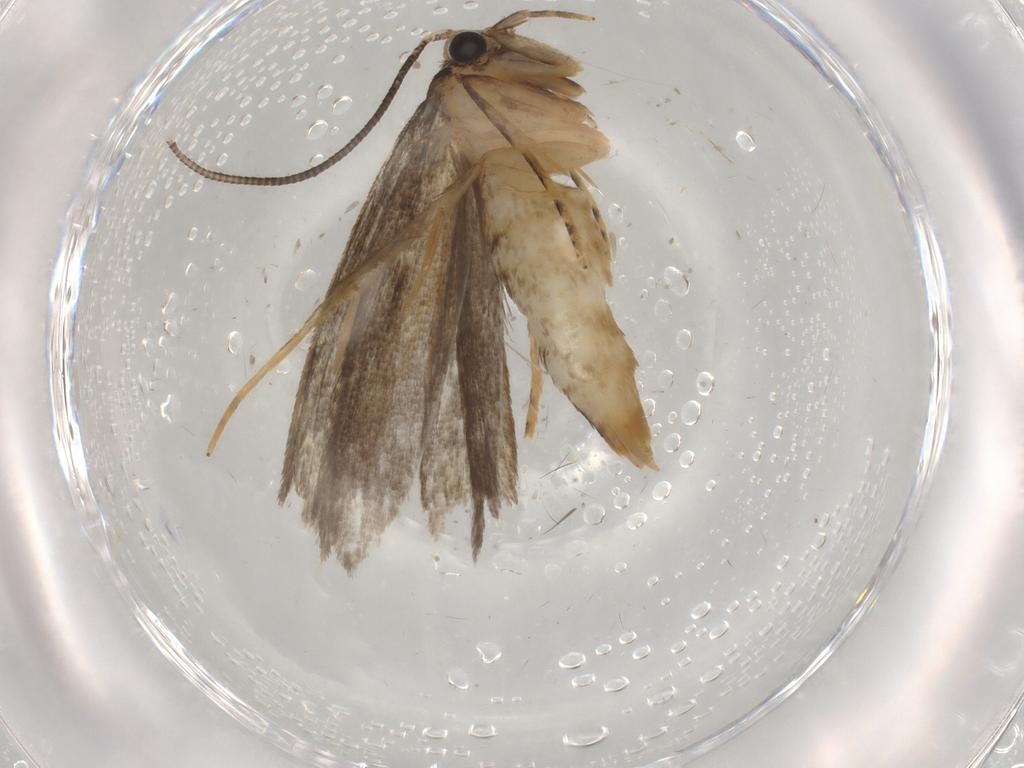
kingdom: Animalia
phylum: Arthropoda
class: Insecta
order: Lepidoptera
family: Tineidae
